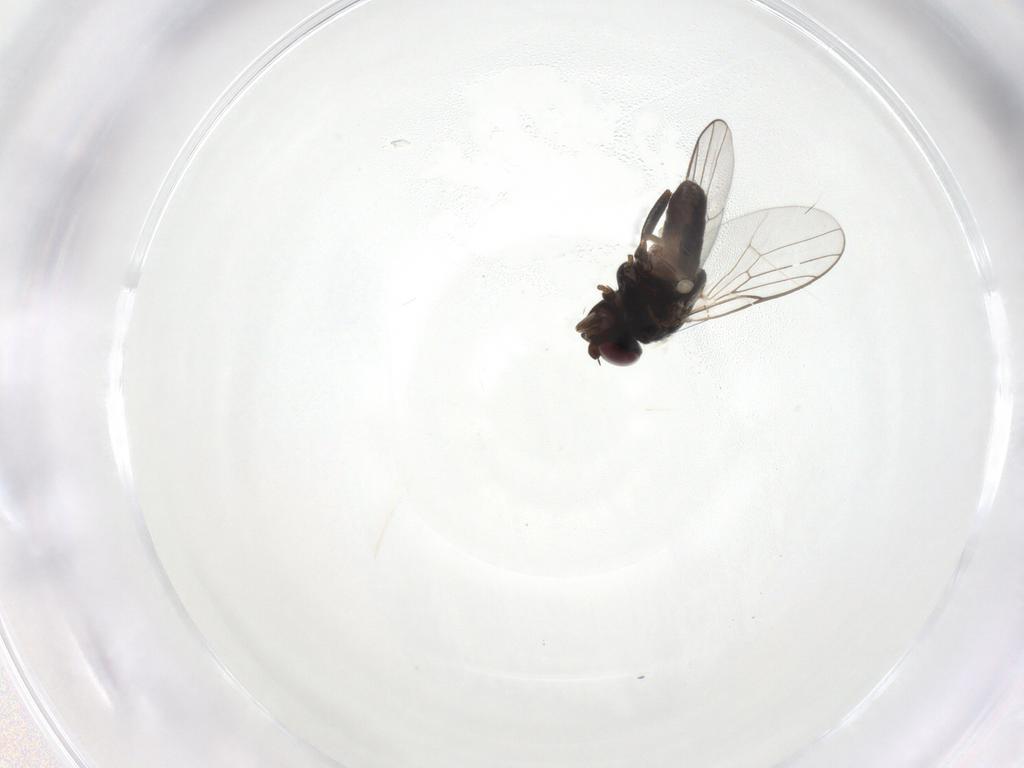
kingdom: Animalia
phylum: Arthropoda
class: Insecta
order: Diptera
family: Chloropidae
